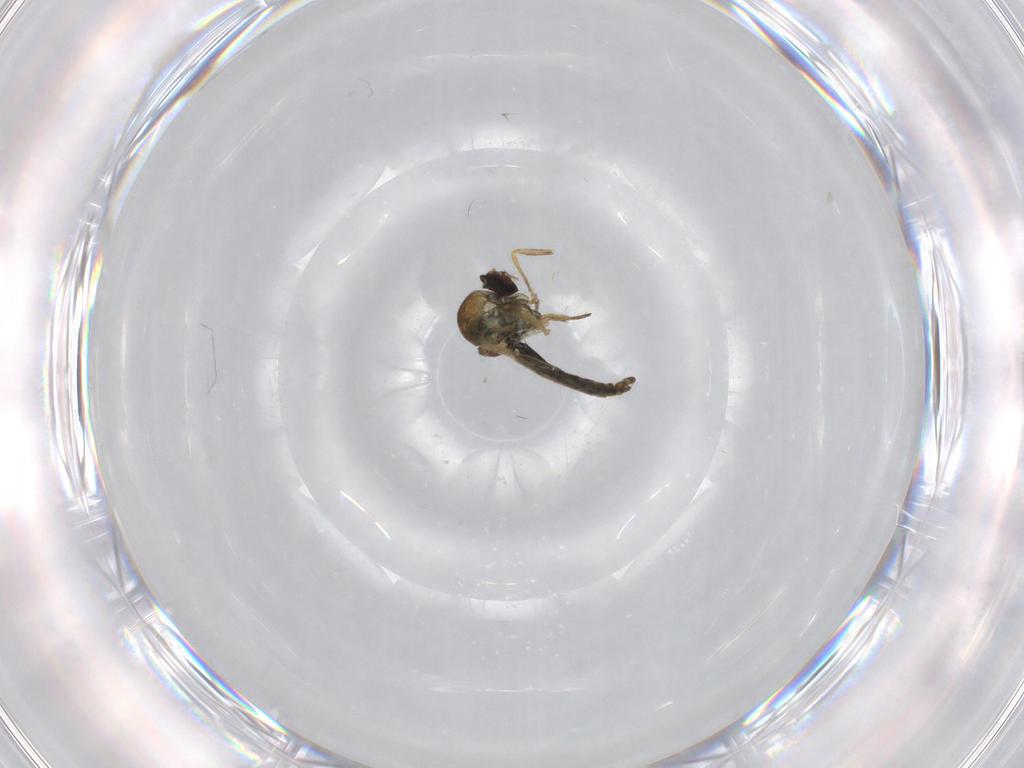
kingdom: Animalia
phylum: Arthropoda
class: Insecta
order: Diptera
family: Ceratopogonidae
